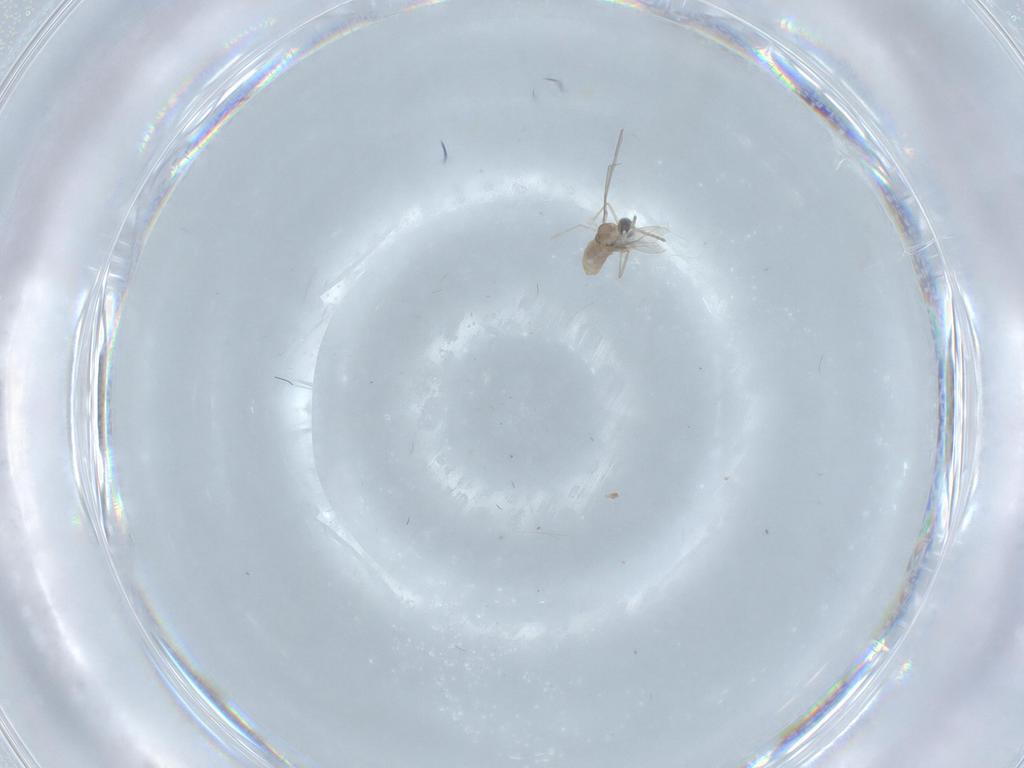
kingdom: Animalia
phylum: Arthropoda
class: Insecta
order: Diptera
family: Cecidomyiidae
